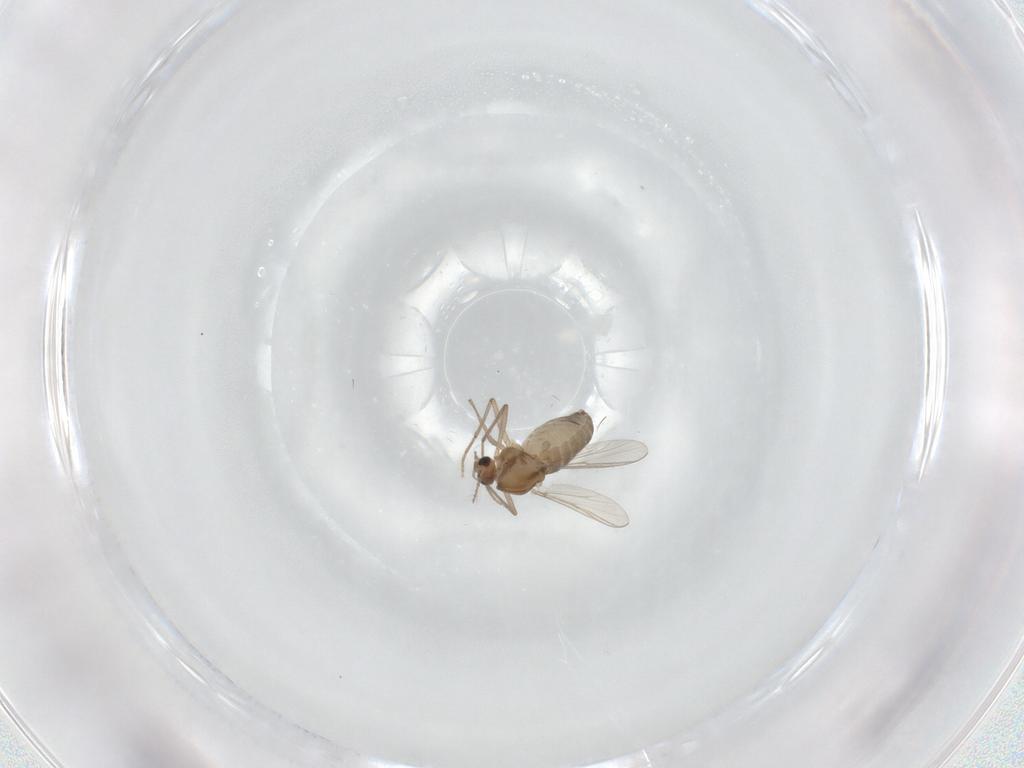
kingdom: Animalia
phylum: Arthropoda
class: Insecta
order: Diptera
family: Chironomidae
